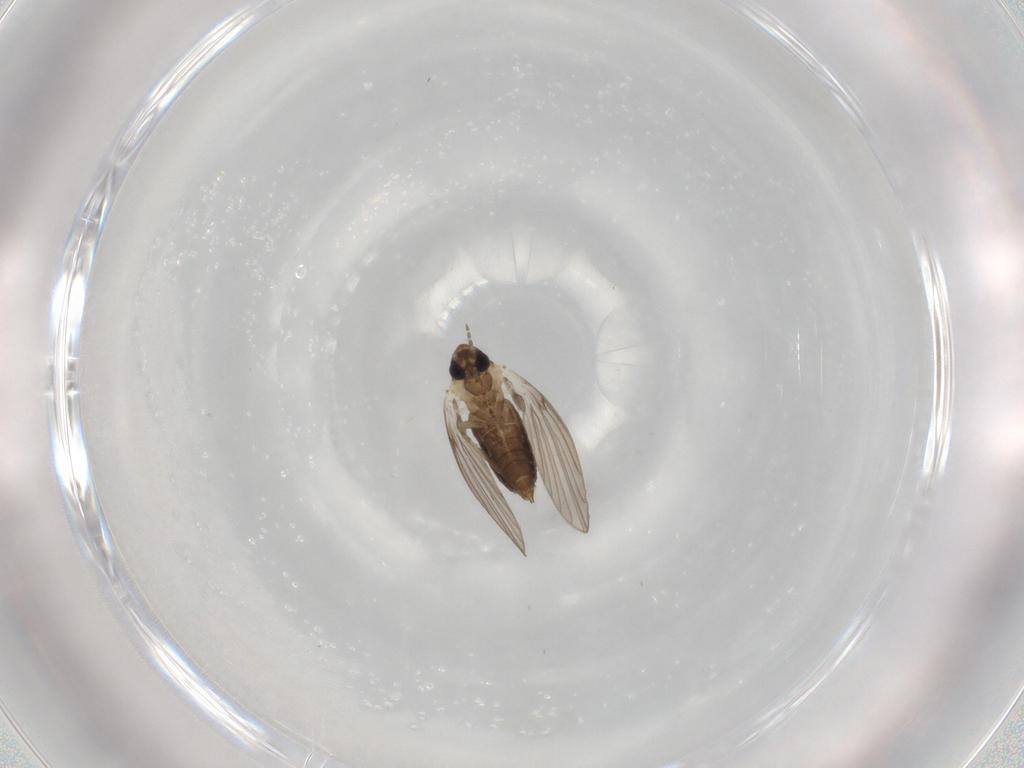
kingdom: Animalia
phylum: Arthropoda
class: Insecta
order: Diptera
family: Psychodidae
